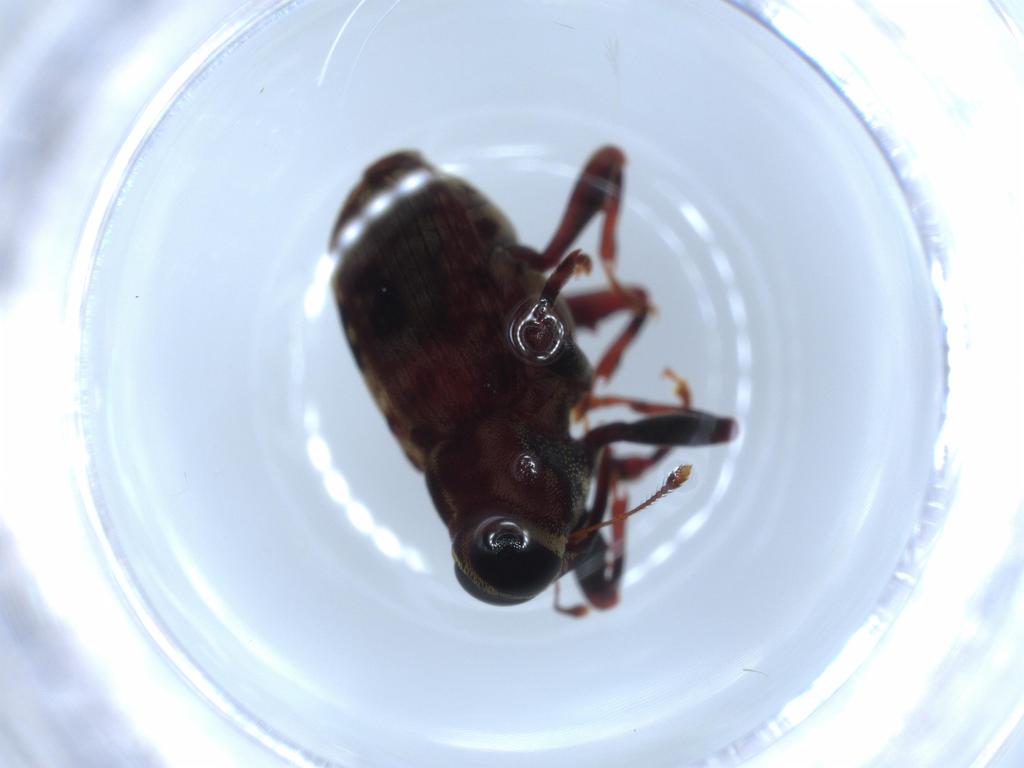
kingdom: Animalia
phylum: Arthropoda
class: Insecta
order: Coleoptera
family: Curculionidae
